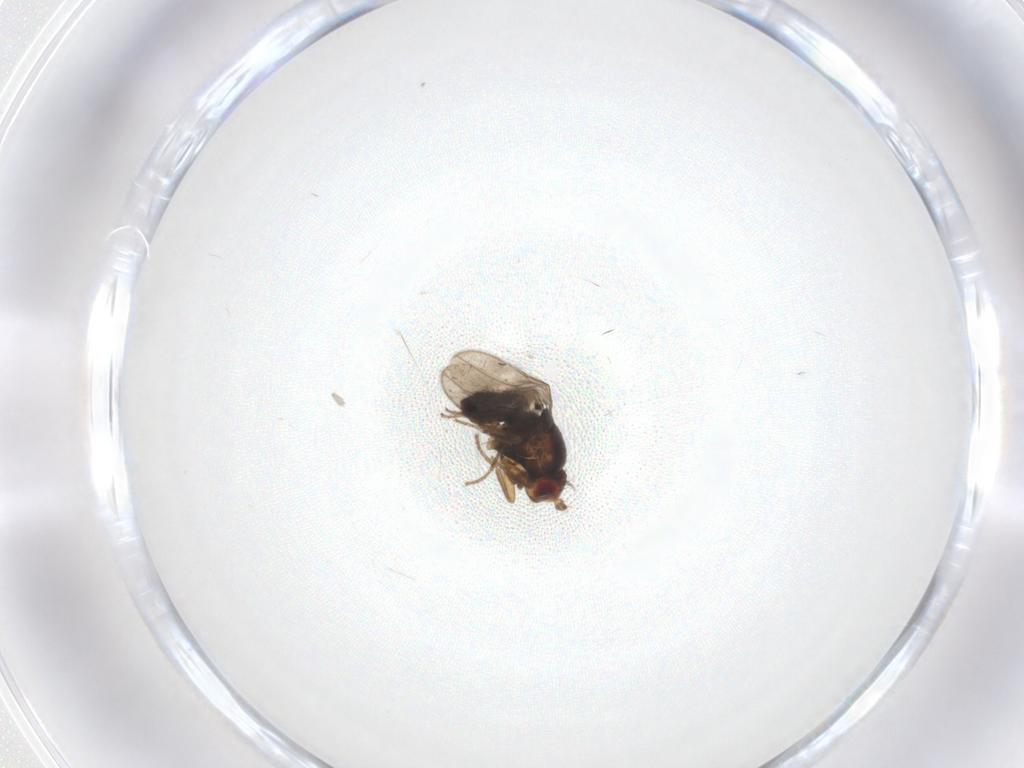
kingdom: Animalia
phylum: Arthropoda
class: Insecta
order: Diptera
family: Sphaeroceridae
